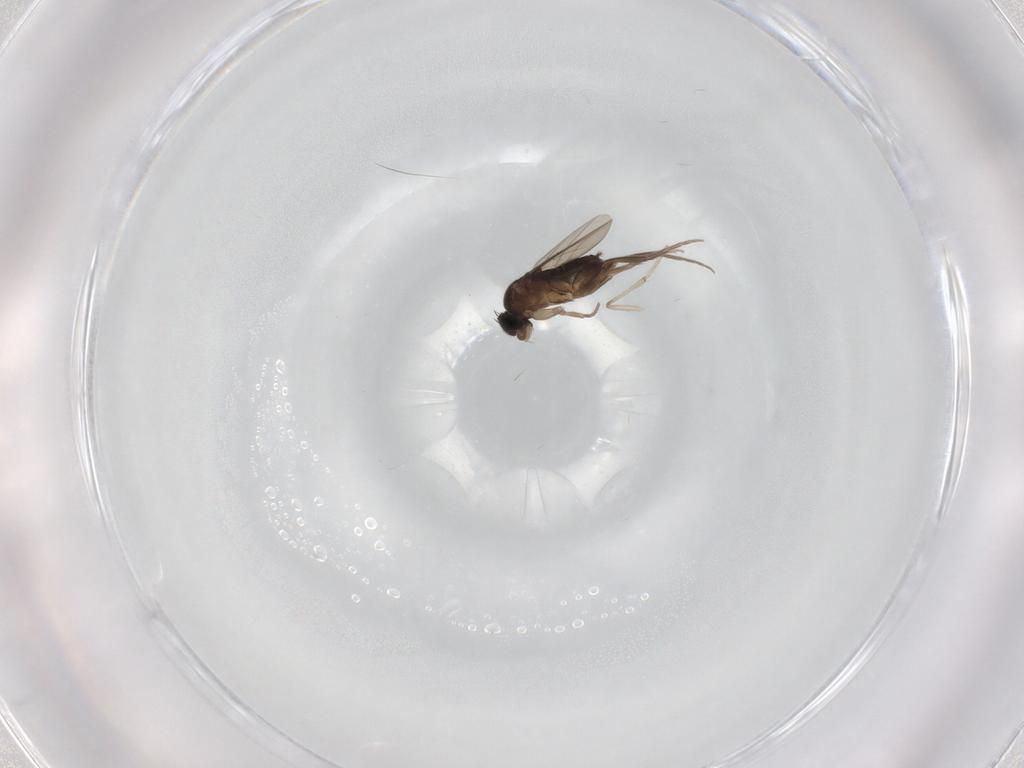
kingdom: Animalia
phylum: Arthropoda
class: Insecta
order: Diptera
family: Phoridae
